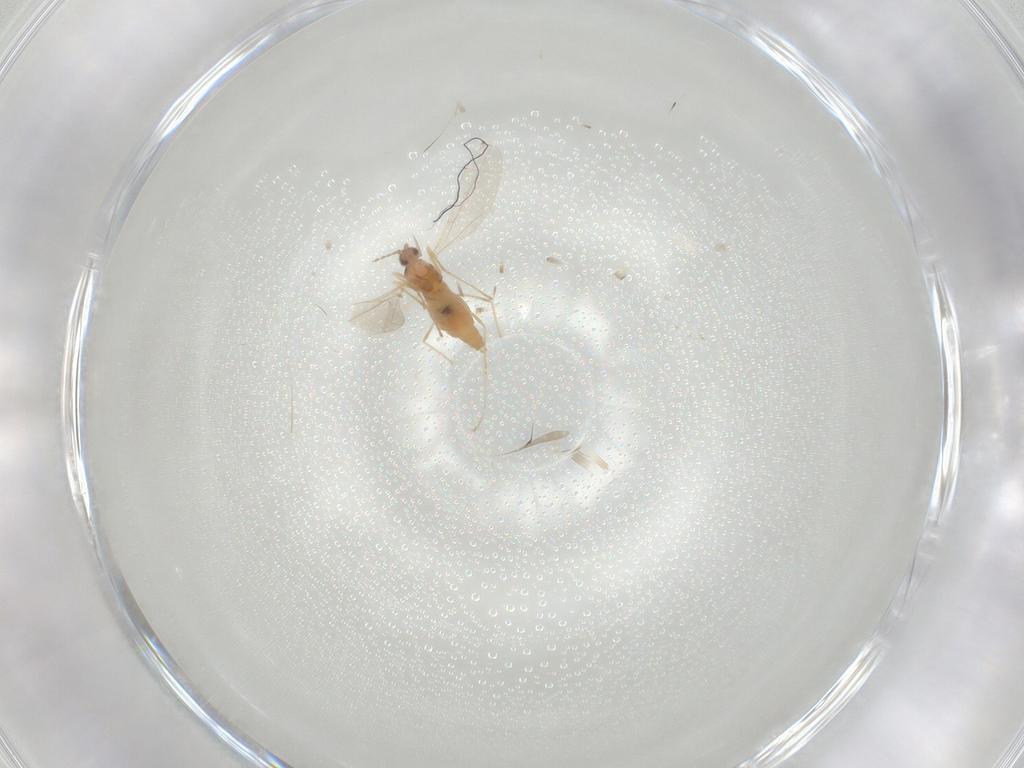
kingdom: Animalia
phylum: Arthropoda
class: Insecta
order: Diptera
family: Cecidomyiidae
